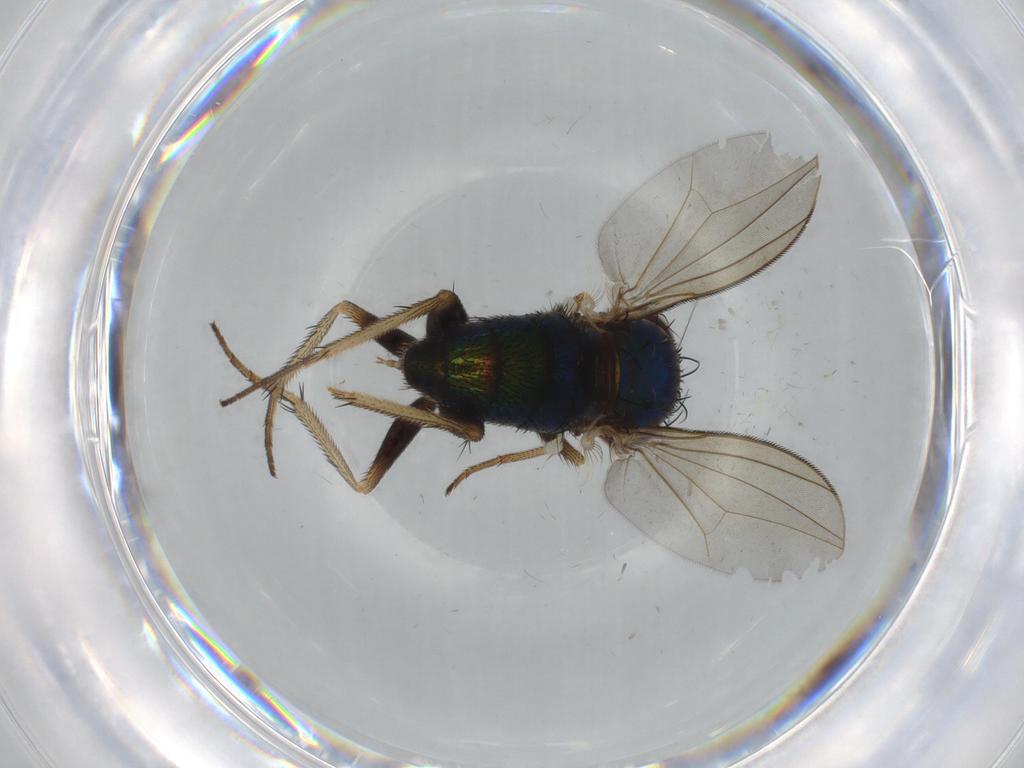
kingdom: Animalia
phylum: Arthropoda
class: Insecta
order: Diptera
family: Dolichopodidae
